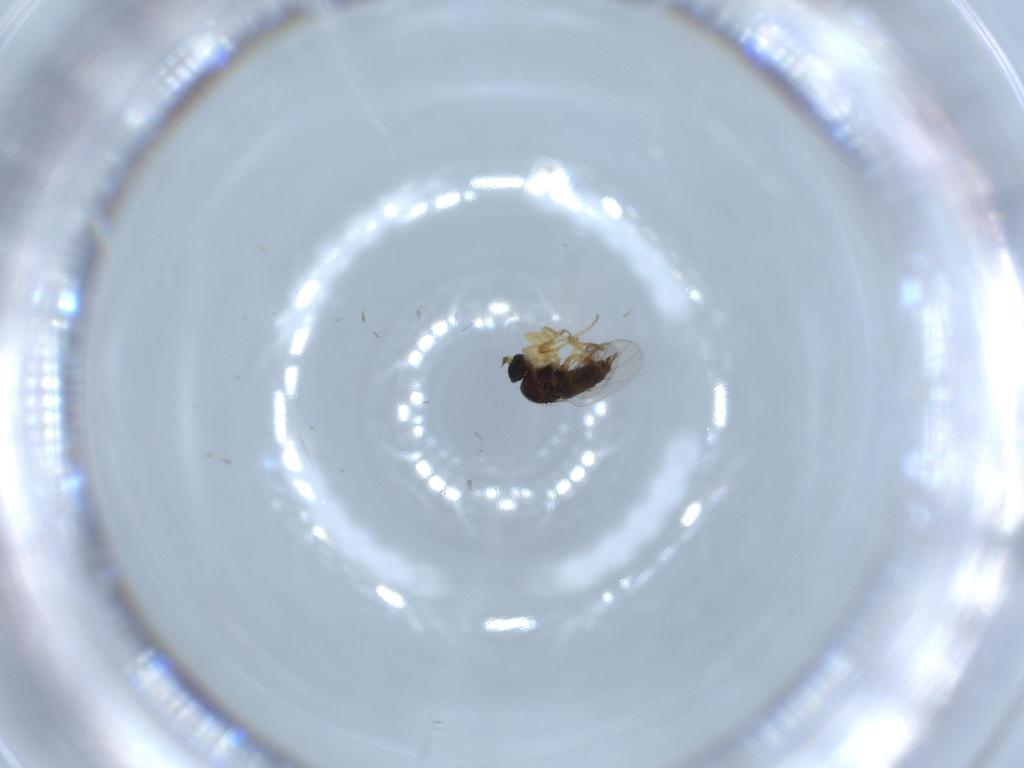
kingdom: Animalia
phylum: Arthropoda
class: Insecta
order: Diptera
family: Hybotidae
